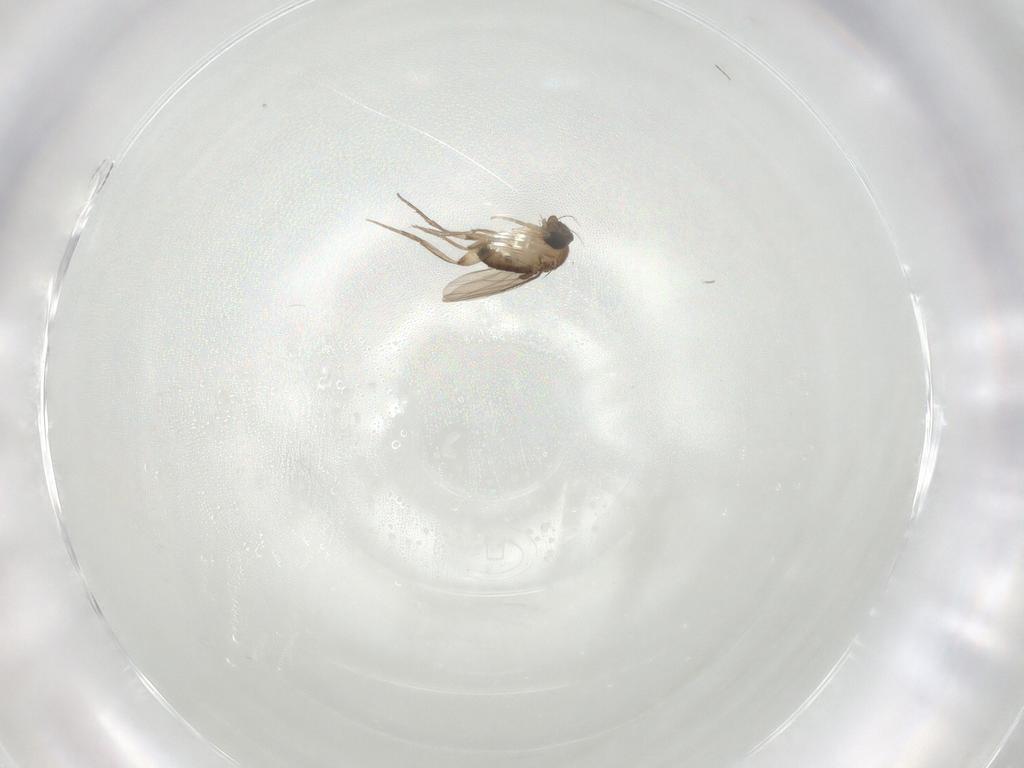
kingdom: Animalia
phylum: Arthropoda
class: Insecta
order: Diptera
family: Phoridae
